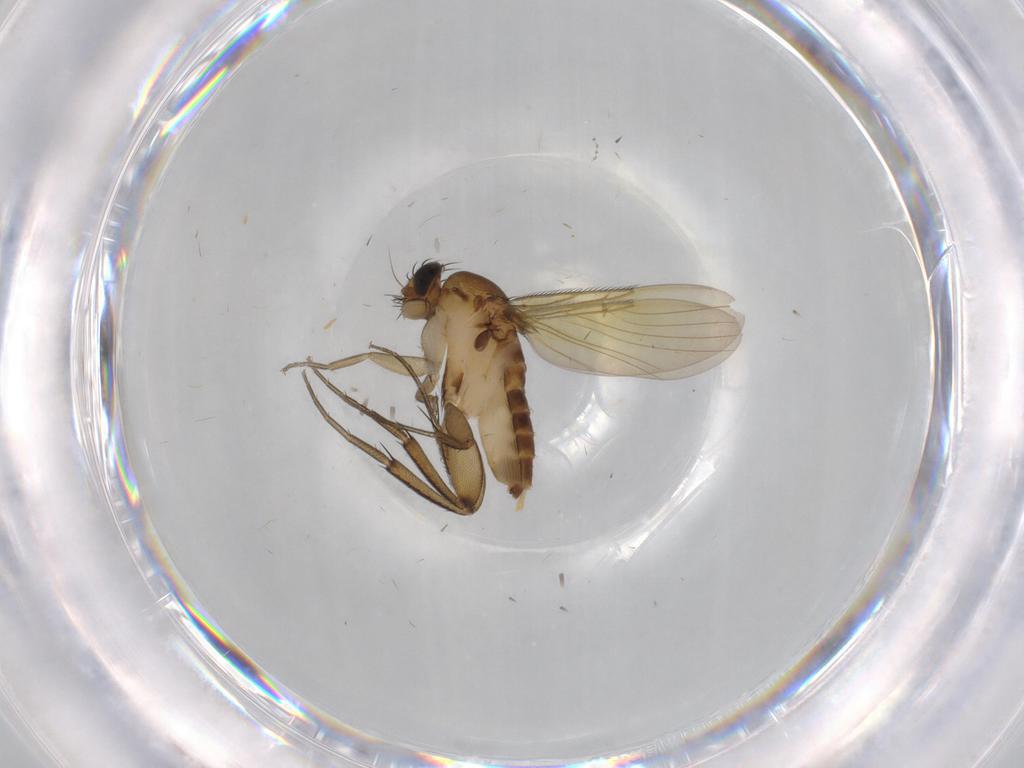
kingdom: Animalia
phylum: Arthropoda
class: Insecta
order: Diptera
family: Phoridae
